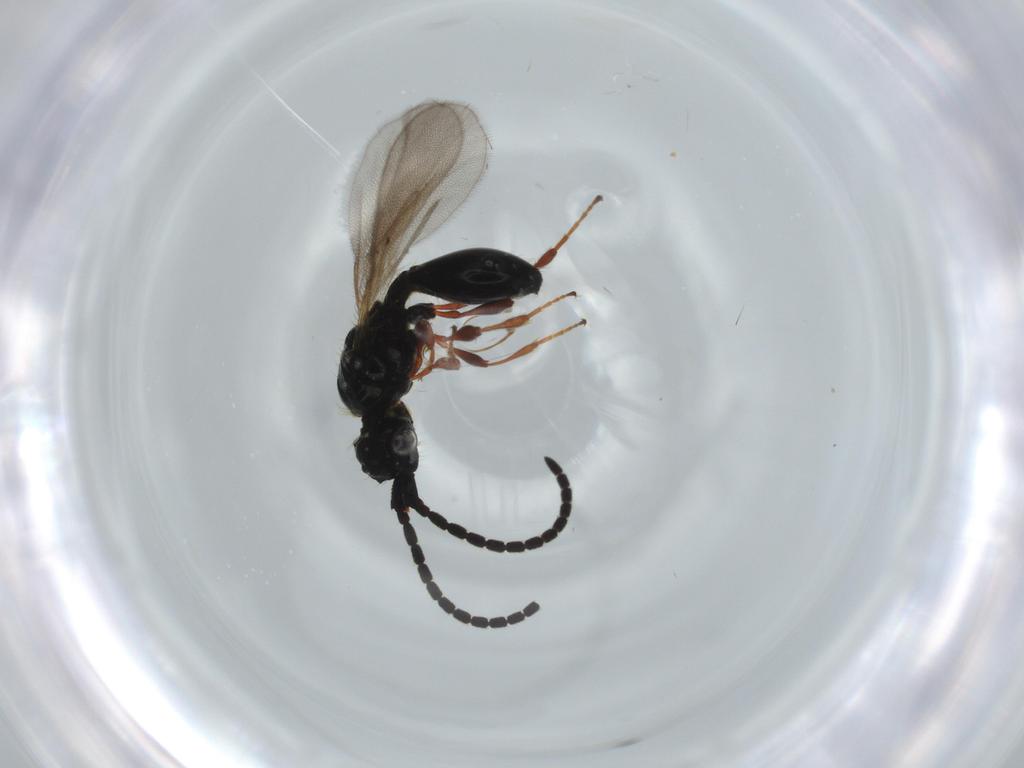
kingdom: Animalia
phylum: Arthropoda
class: Insecta
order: Hymenoptera
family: Diapriidae
